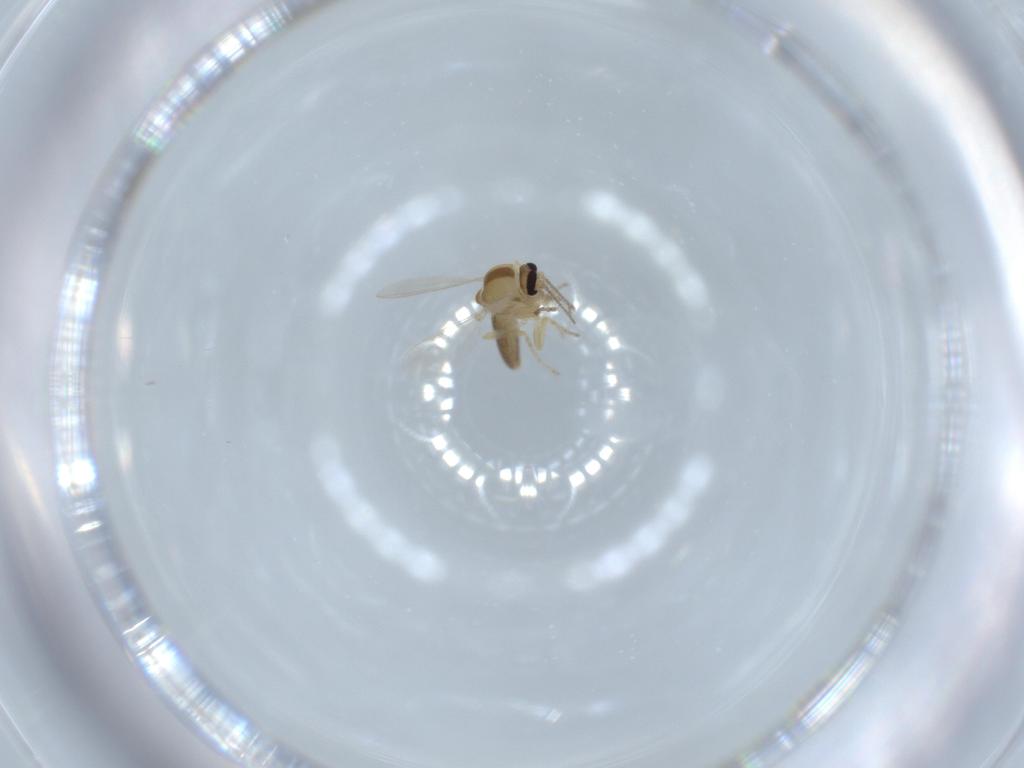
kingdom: Animalia
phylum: Arthropoda
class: Insecta
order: Diptera
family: Ceratopogonidae
